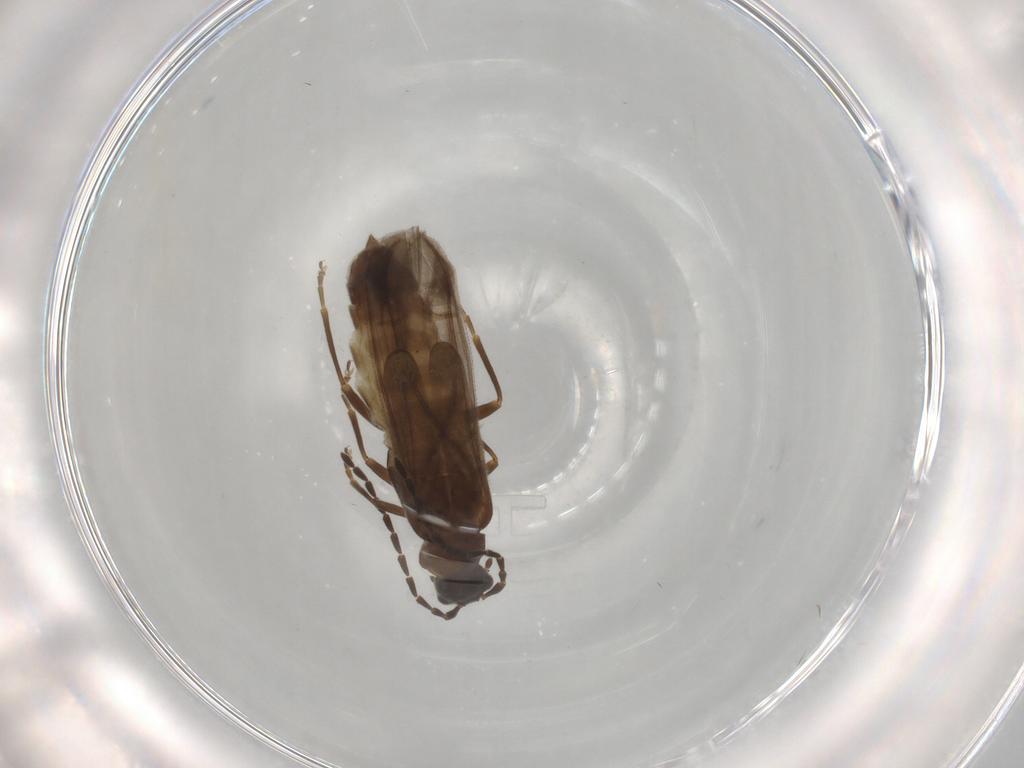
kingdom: Animalia
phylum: Arthropoda
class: Insecta
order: Coleoptera
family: Cantharidae
